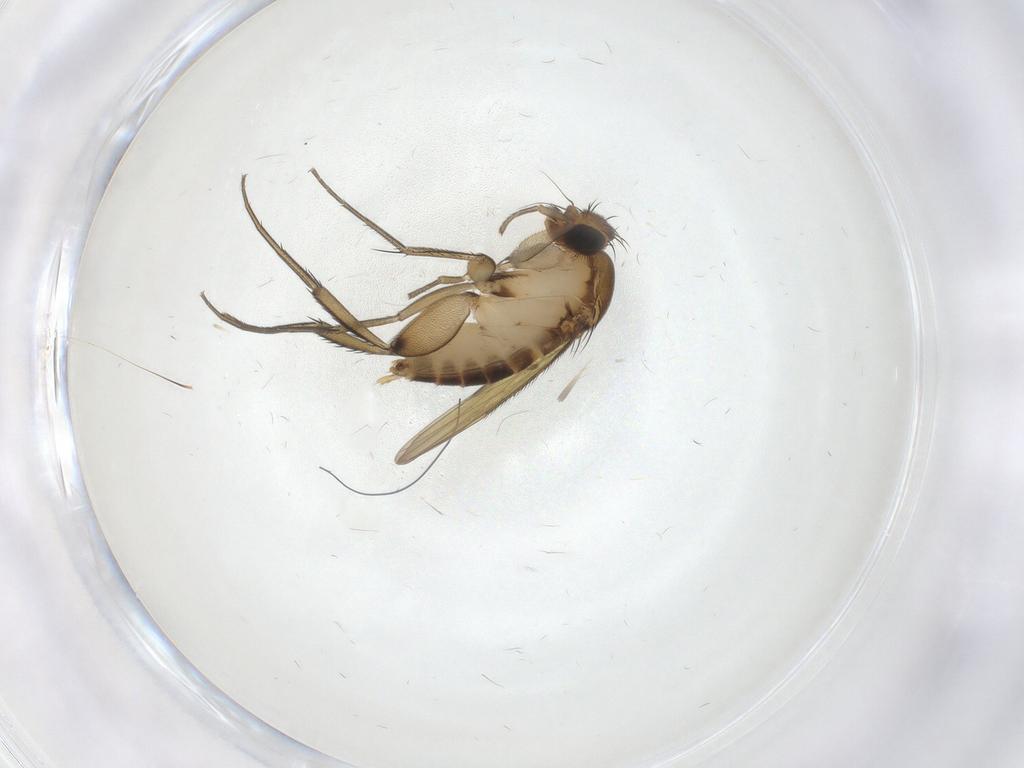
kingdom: Animalia
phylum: Arthropoda
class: Insecta
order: Diptera
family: Phoridae
